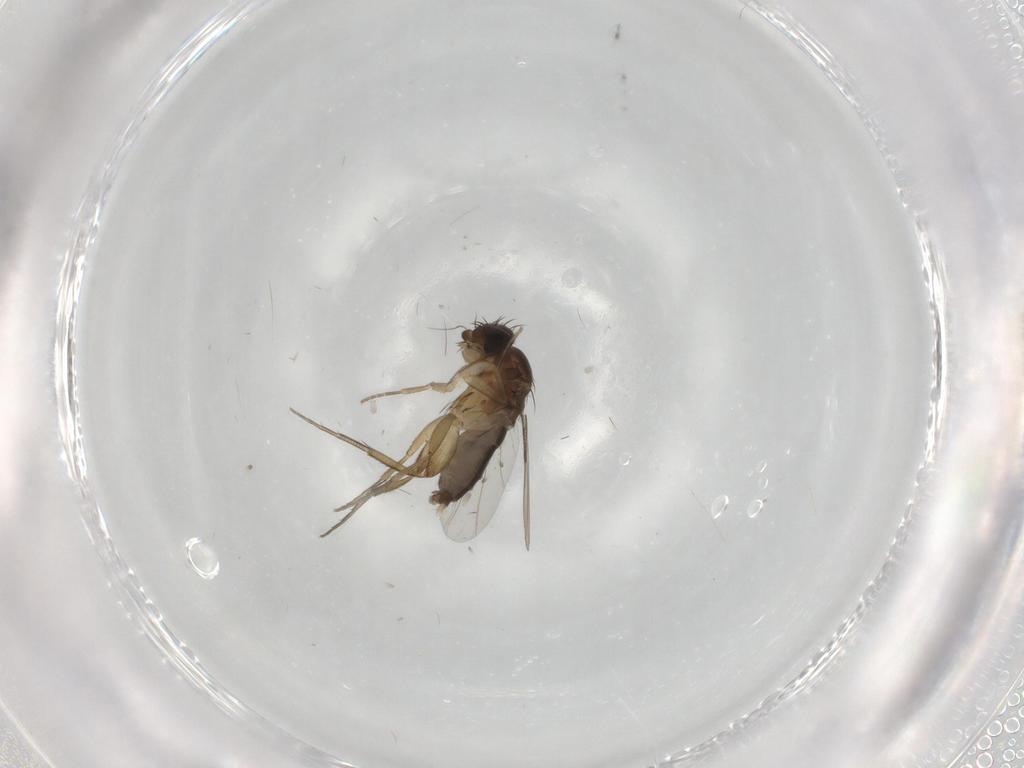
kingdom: Animalia
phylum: Arthropoda
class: Insecta
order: Diptera
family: Phoridae
